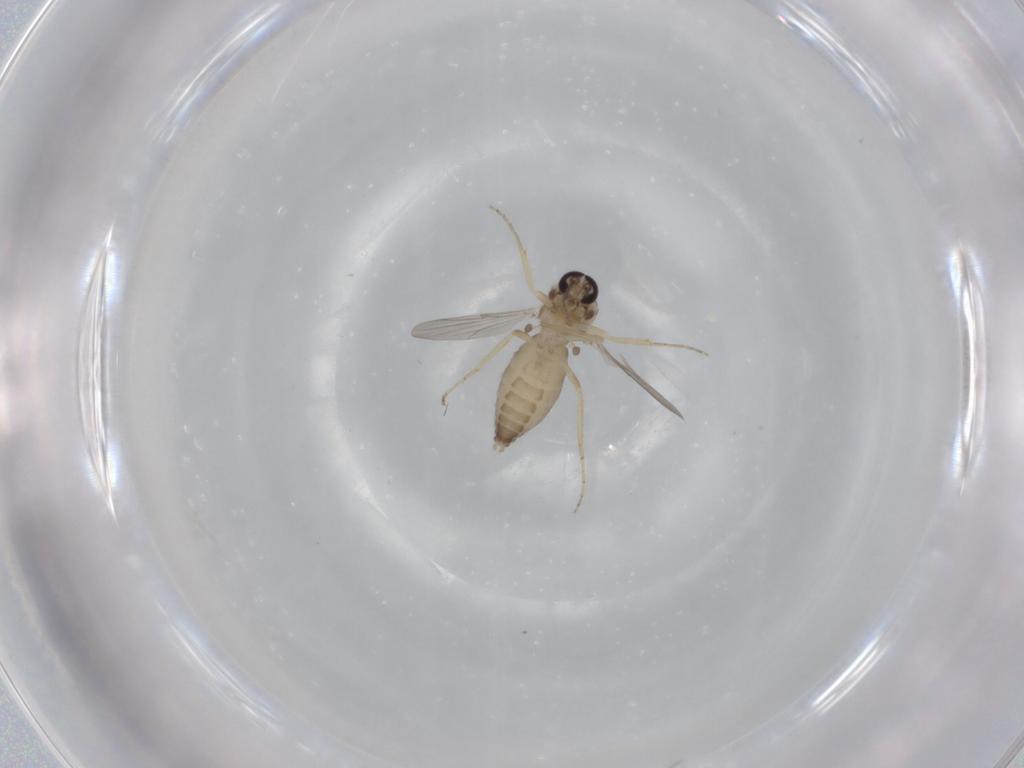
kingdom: Animalia
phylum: Arthropoda
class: Insecta
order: Diptera
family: Ceratopogonidae
